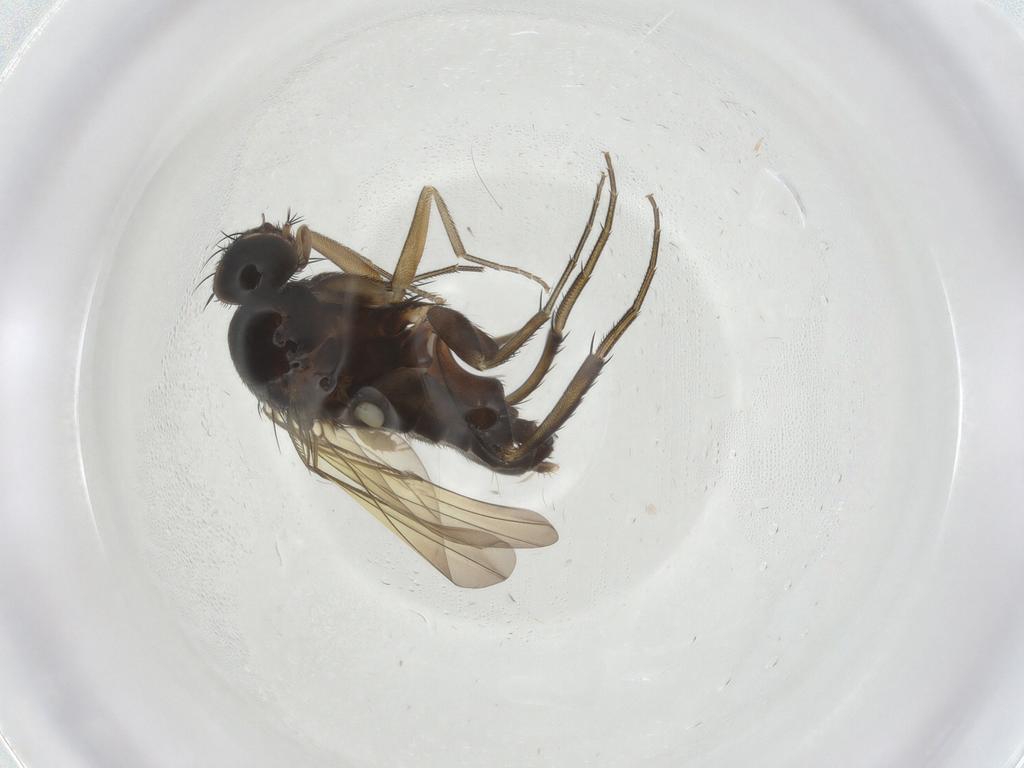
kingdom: Animalia
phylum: Arthropoda
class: Insecta
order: Diptera
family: Phoridae
